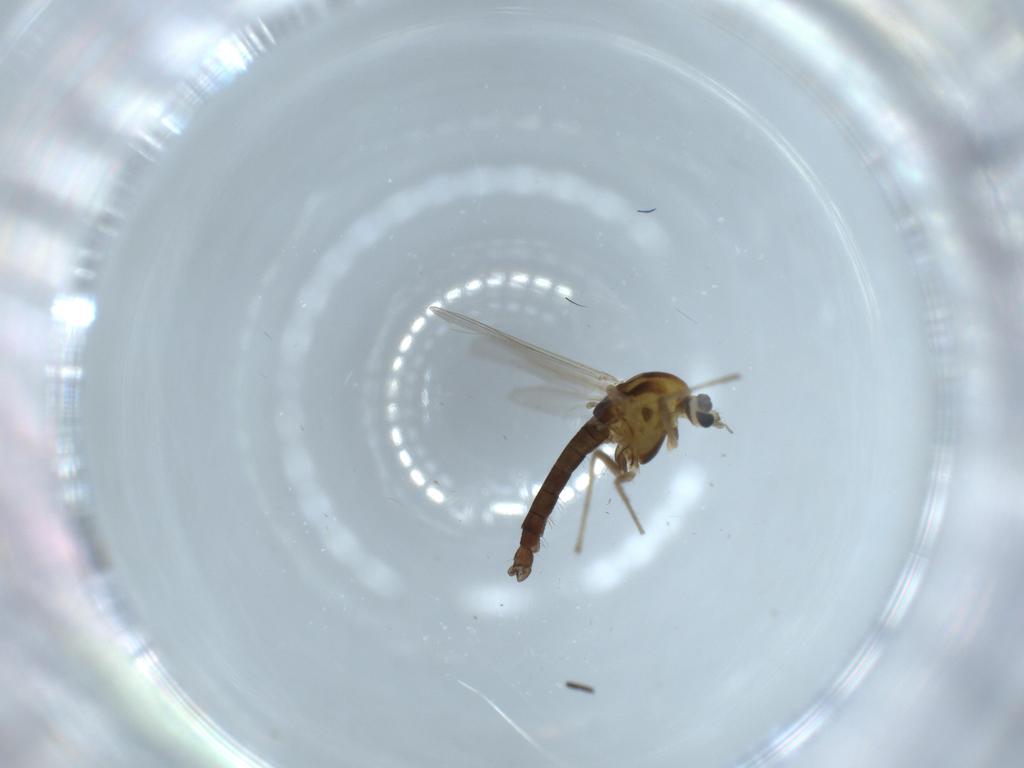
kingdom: Animalia
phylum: Arthropoda
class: Insecta
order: Diptera
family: Chironomidae
